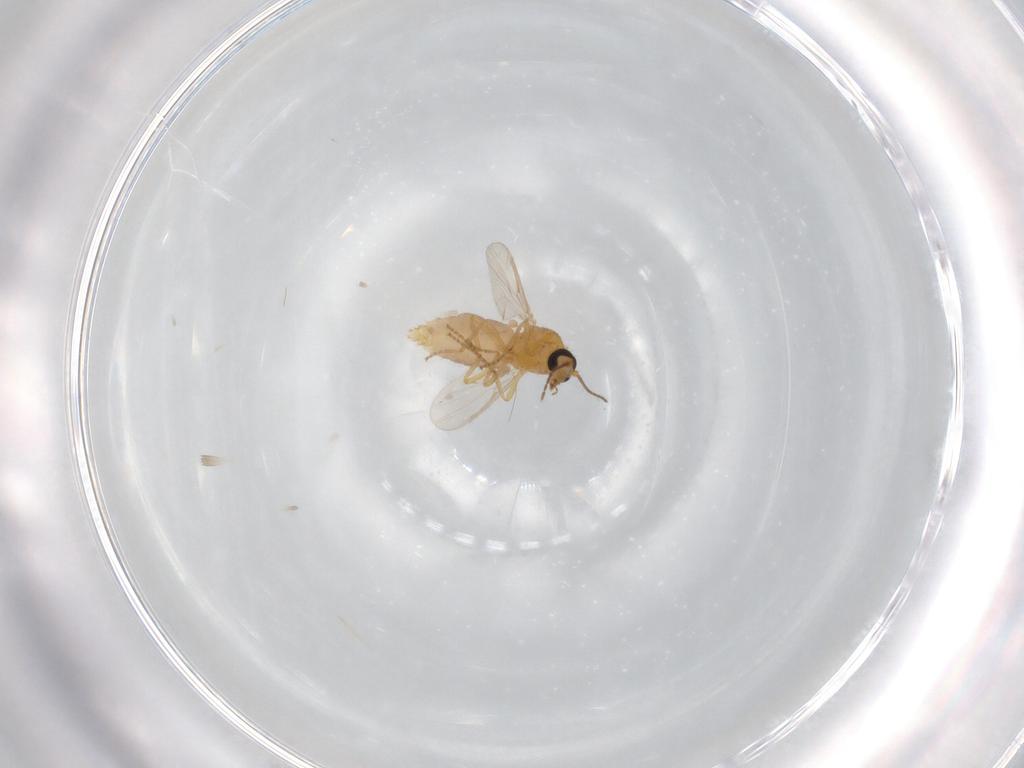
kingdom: Animalia
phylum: Arthropoda
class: Insecta
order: Diptera
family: Ceratopogonidae
